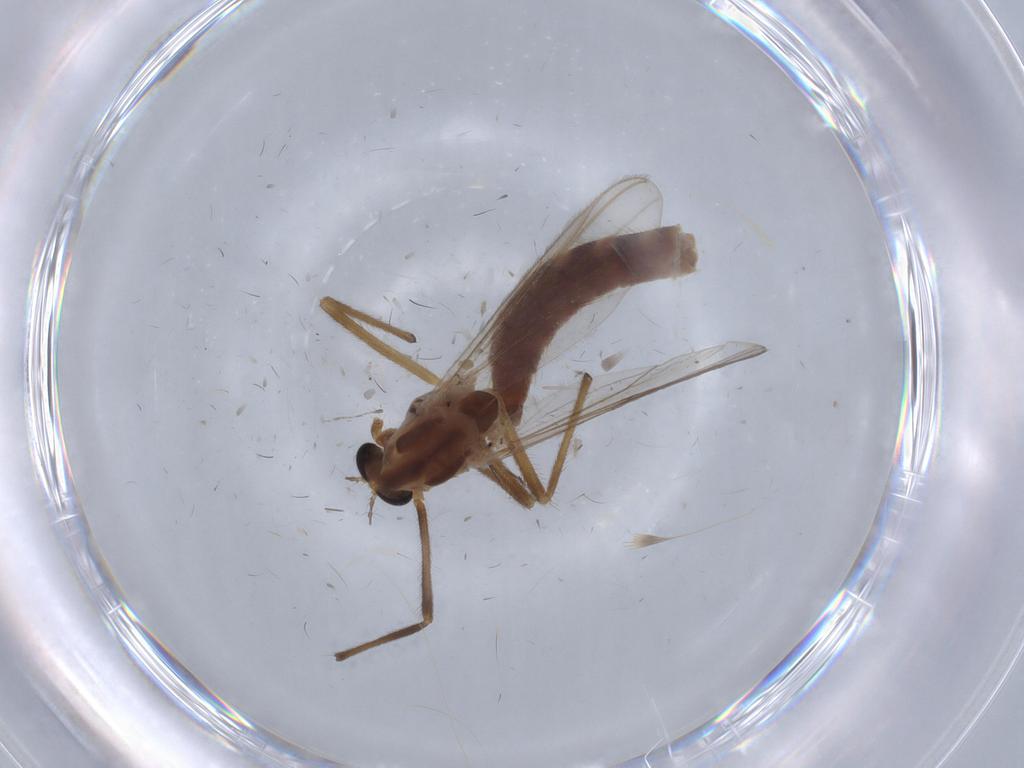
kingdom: Animalia
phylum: Arthropoda
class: Insecta
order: Diptera
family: Chironomidae
